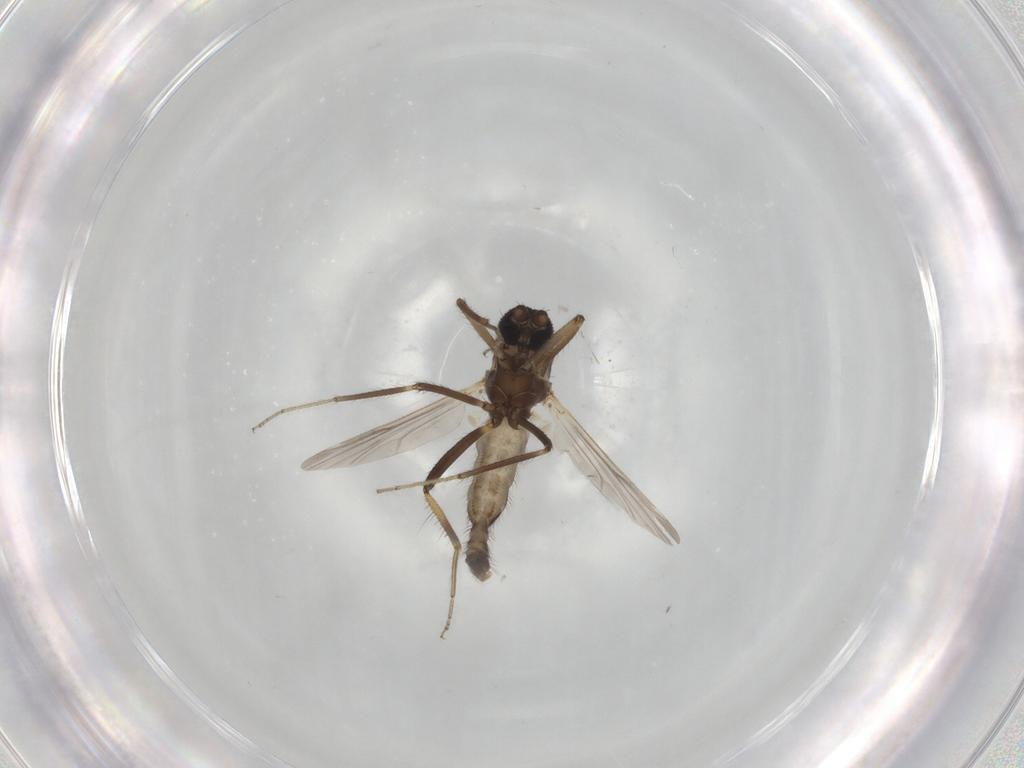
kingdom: Animalia
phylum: Arthropoda
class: Insecta
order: Diptera
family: Ceratopogonidae
